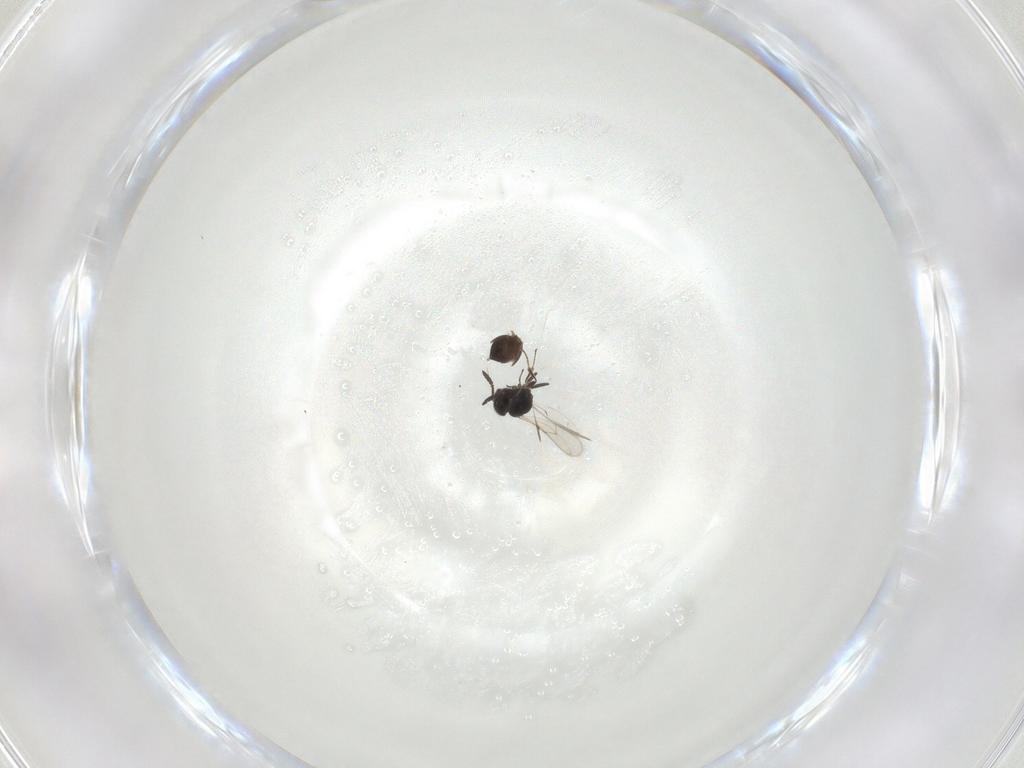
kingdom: Animalia
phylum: Arthropoda
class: Insecta
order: Hymenoptera
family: Scelionidae
